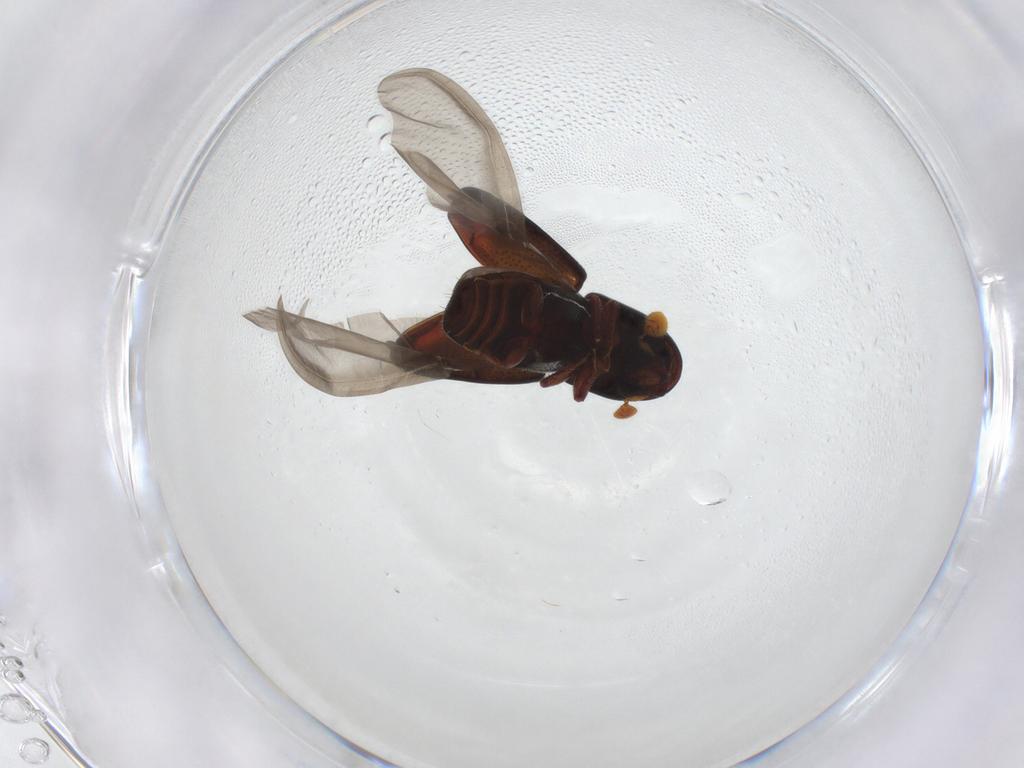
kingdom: Animalia
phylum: Arthropoda
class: Insecta
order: Coleoptera
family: Curculionidae
